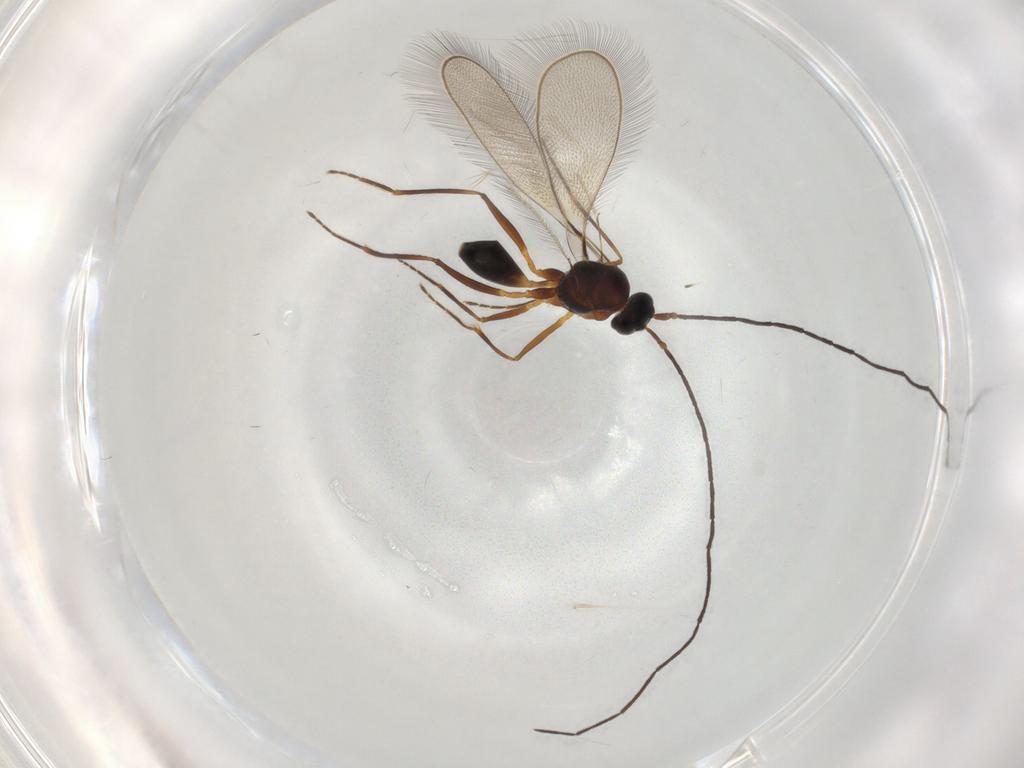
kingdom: Animalia
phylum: Arthropoda
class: Insecta
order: Hymenoptera
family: Mymaridae
